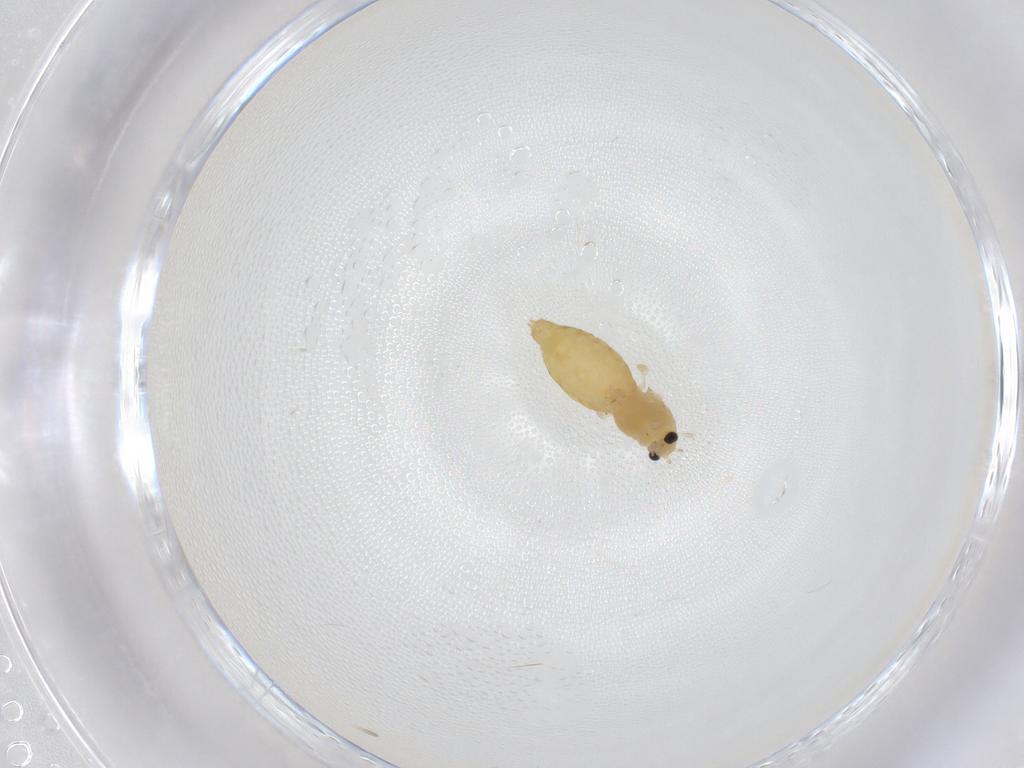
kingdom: Animalia
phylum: Arthropoda
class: Insecta
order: Diptera
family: Chironomidae
